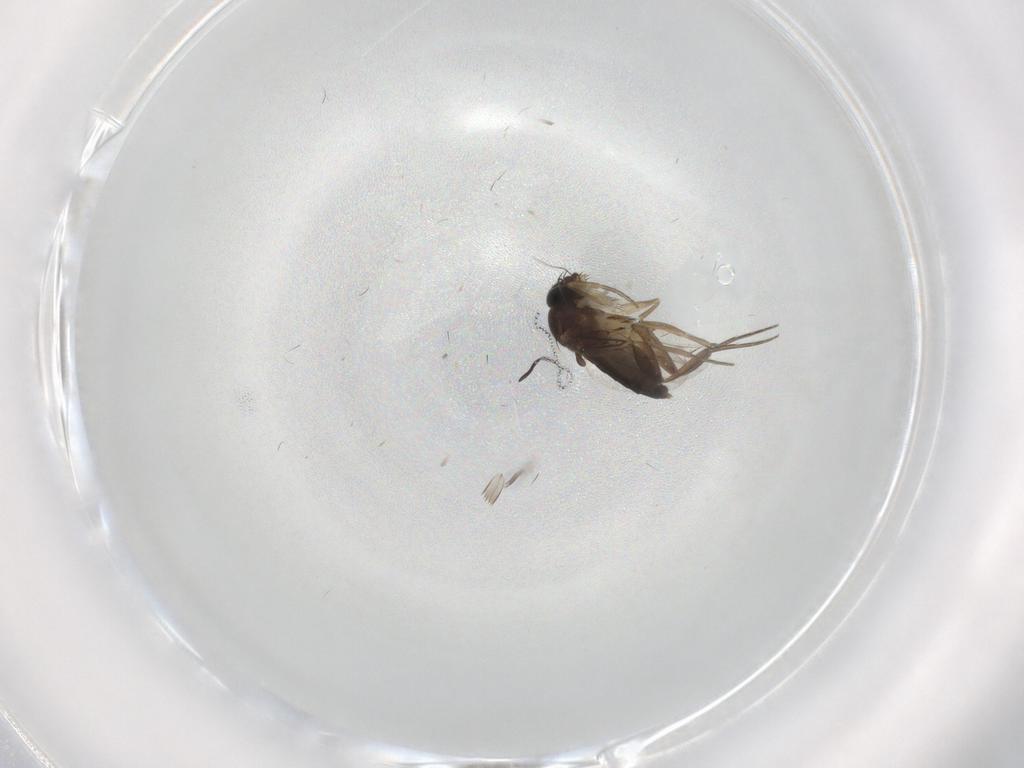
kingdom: Animalia
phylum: Arthropoda
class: Insecta
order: Diptera
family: Phoridae
